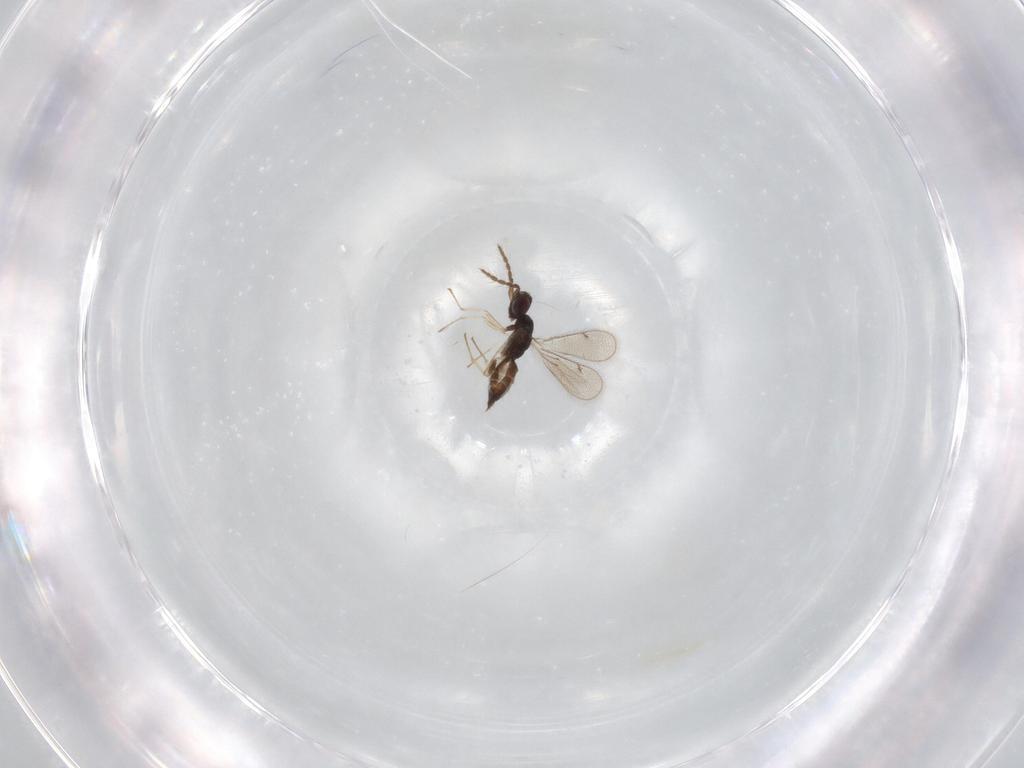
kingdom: Animalia
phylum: Arthropoda
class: Insecta
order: Hymenoptera
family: Eulophidae
